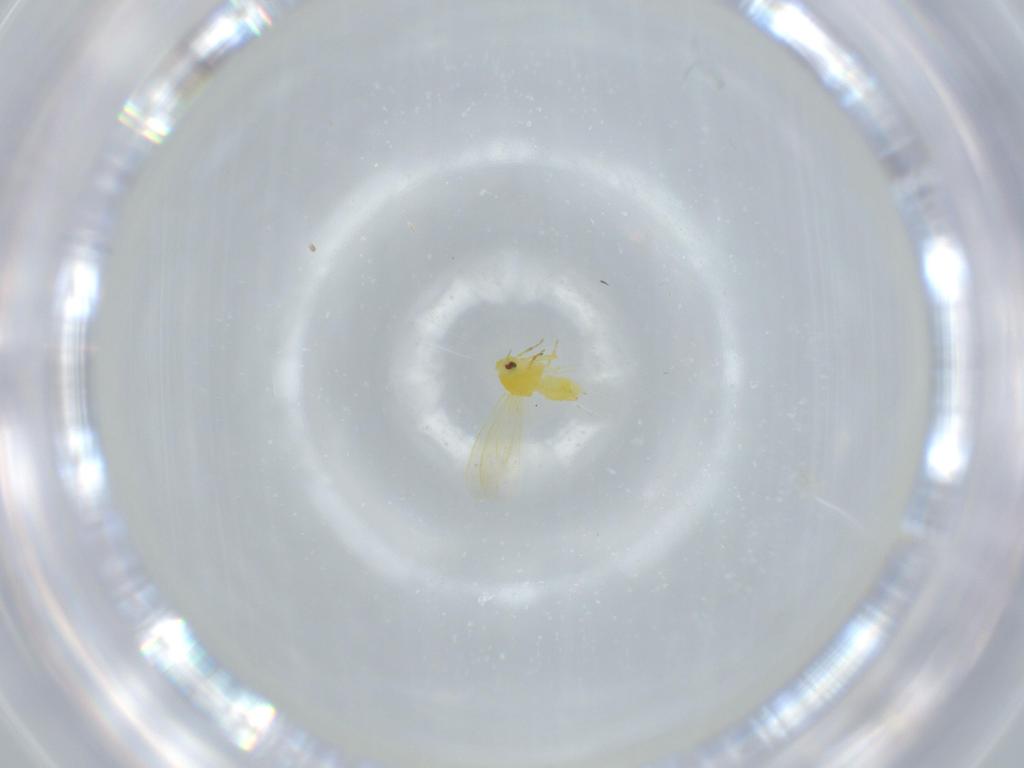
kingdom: Animalia
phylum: Arthropoda
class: Insecta
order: Hemiptera
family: Aleyrodidae
